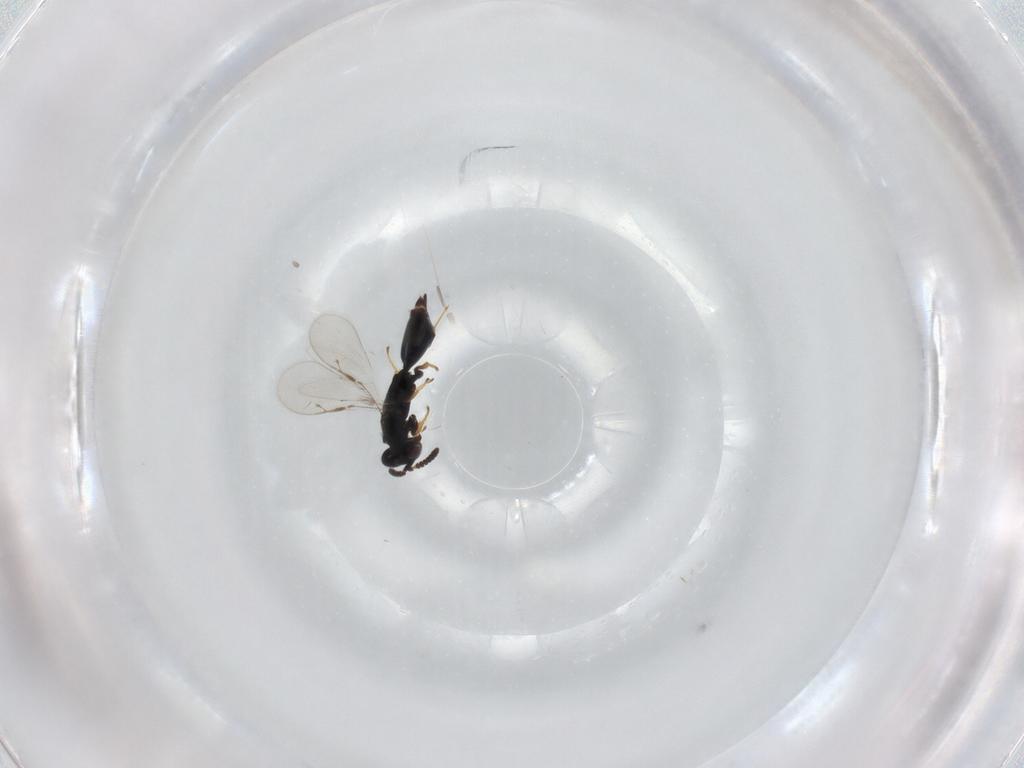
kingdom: Animalia
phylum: Arthropoda
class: Insecta
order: Hymenoptera
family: Pteromalidae
